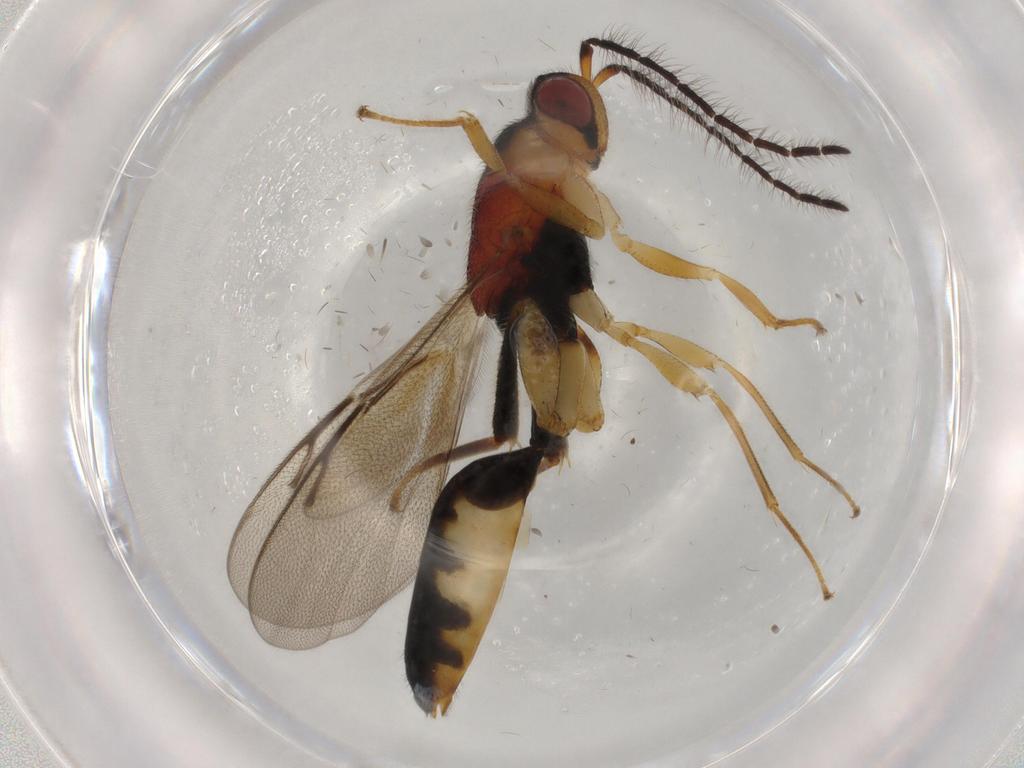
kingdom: Animalia
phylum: Arthropoda
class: Insecta
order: Hymenoptera
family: Eurytomidae
